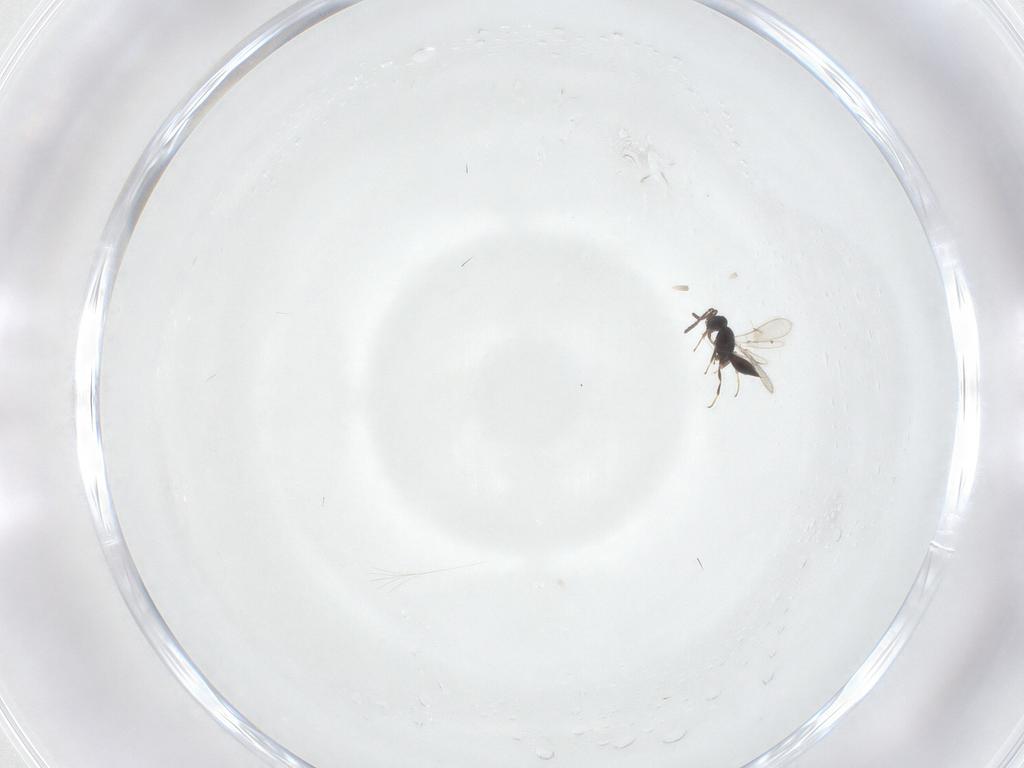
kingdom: Animalia
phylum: Arthropoda
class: Insecta
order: Hymenoptera
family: Scelionidae
